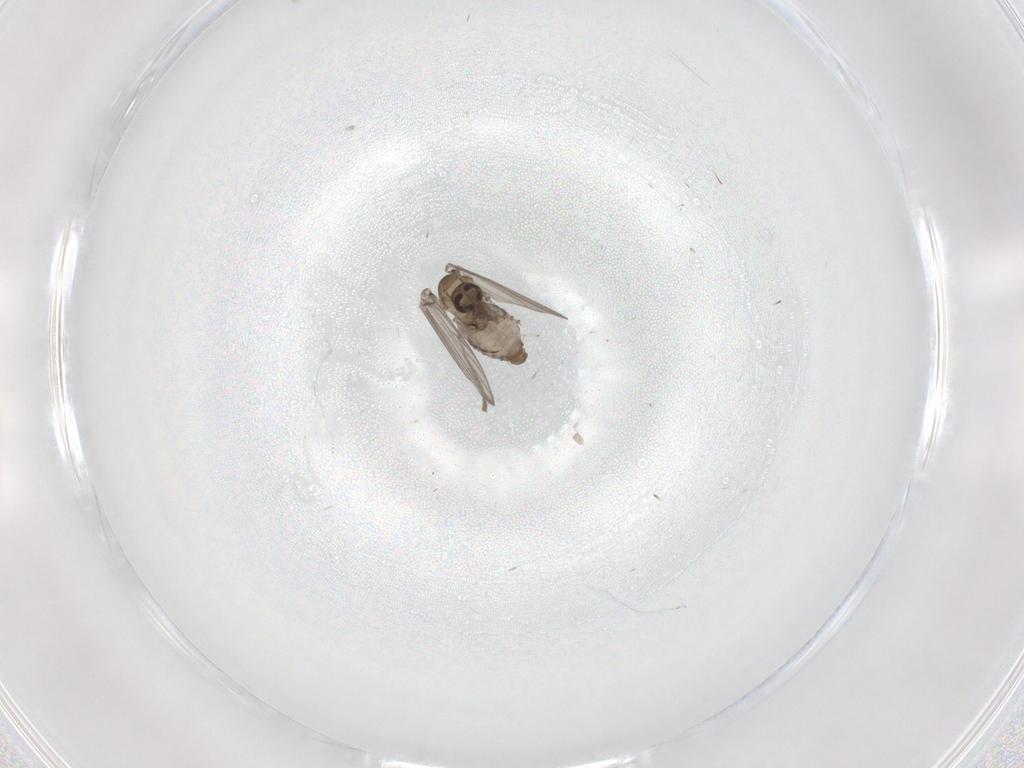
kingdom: Animalia
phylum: Arthropoda
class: Insecta
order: Diptera
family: Psychodidae
